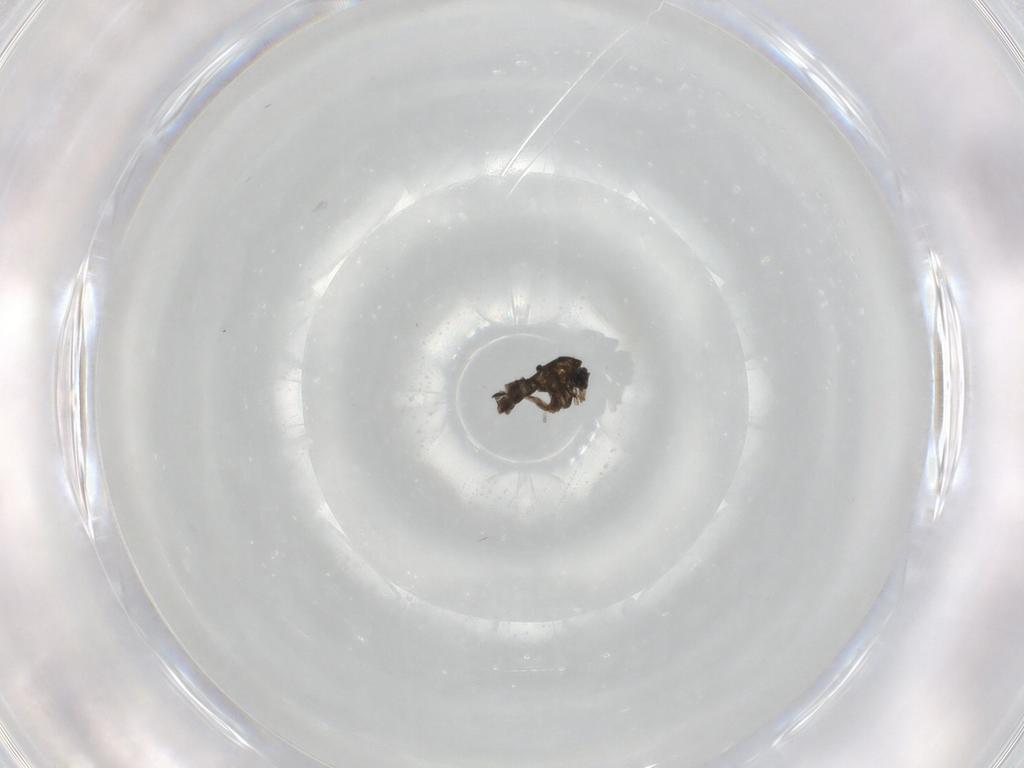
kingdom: Animalia
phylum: Arthropoda
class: Insecta
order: Diptera
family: Sciaridae
